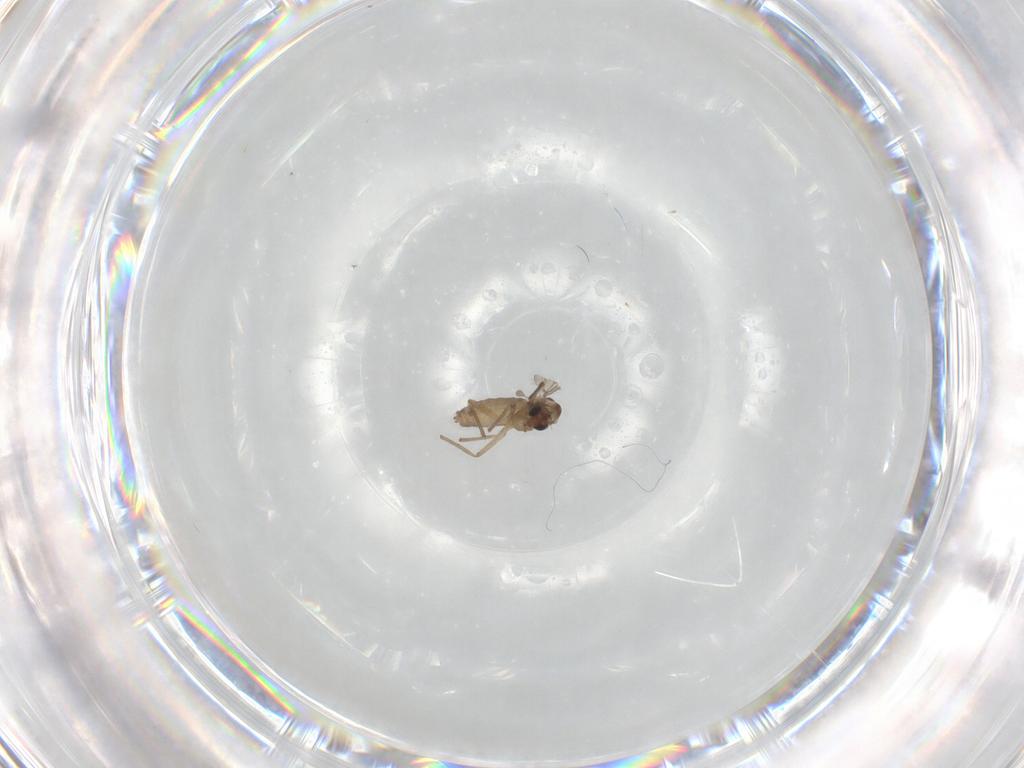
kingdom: Animalia
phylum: Arthropoda
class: Insecta
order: Diptera
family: Chironomidae
